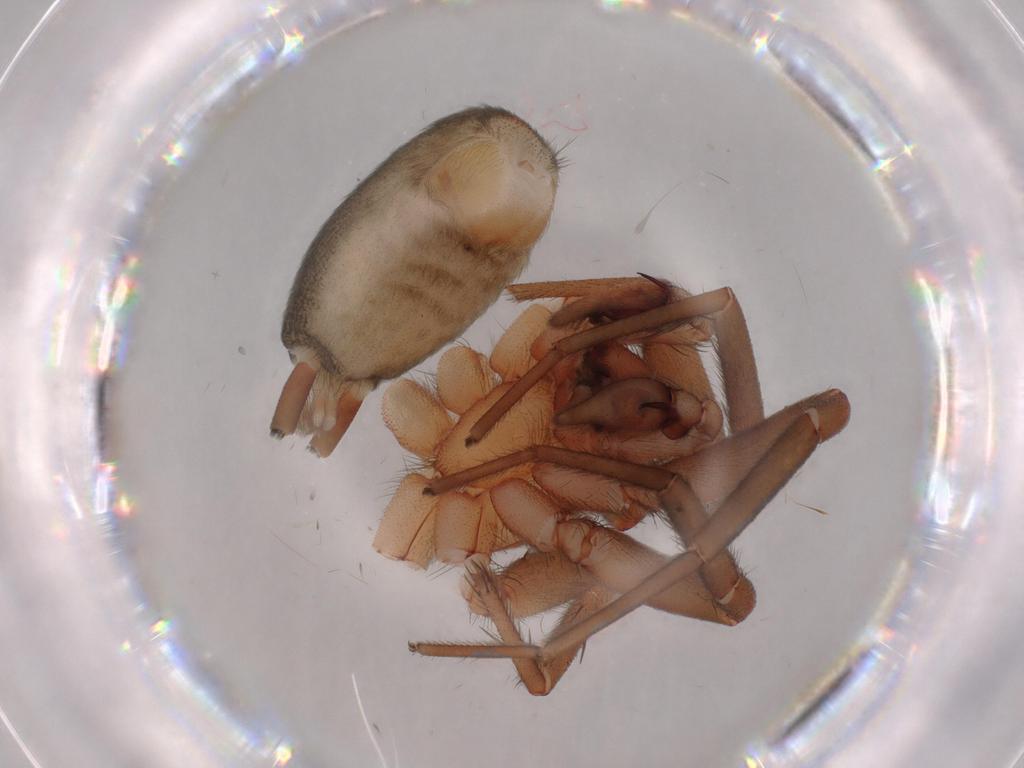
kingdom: Animalia
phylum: Arthropoda
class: Arachnida
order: Araneae
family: Gnaphosidae
